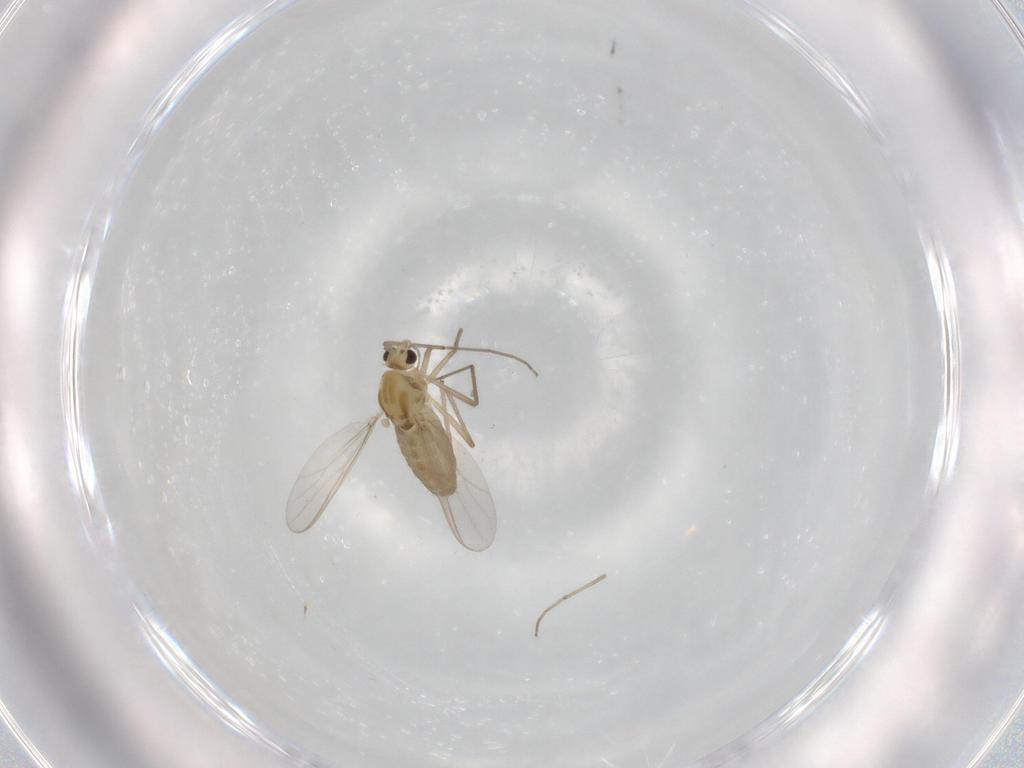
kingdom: Animalia
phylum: Arthropoda
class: Insecta
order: Diptera
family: Chironomidae
